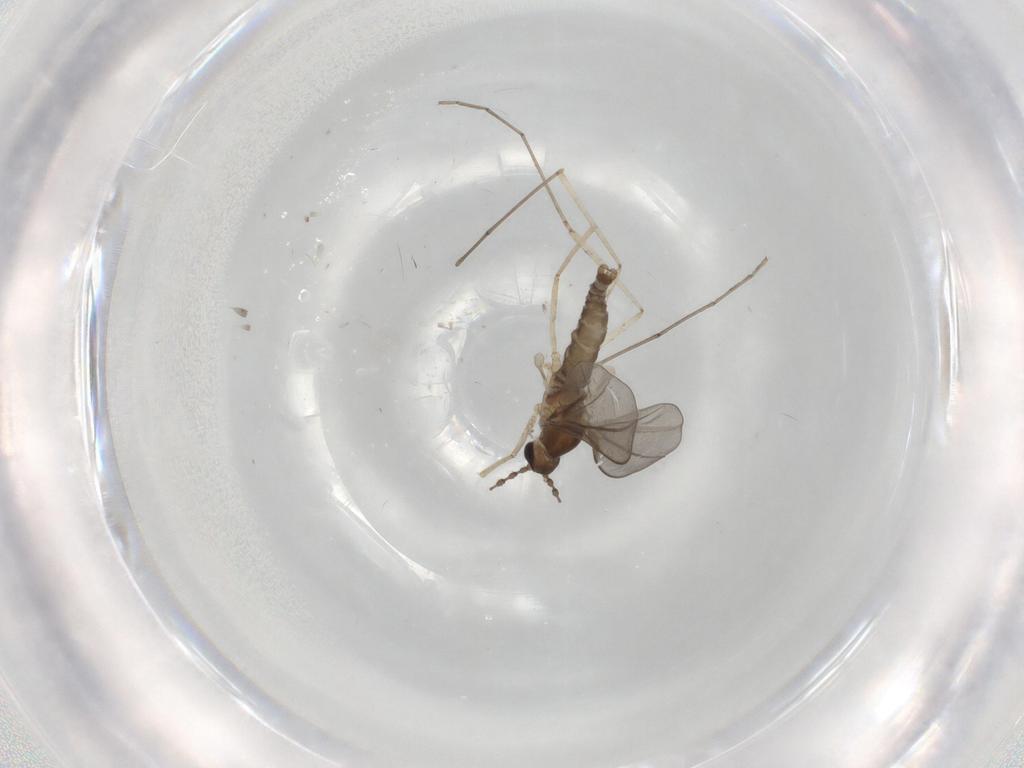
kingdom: Animalia
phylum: Arthropoda
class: Insecta
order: Diptera
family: Cecidomyiidae
